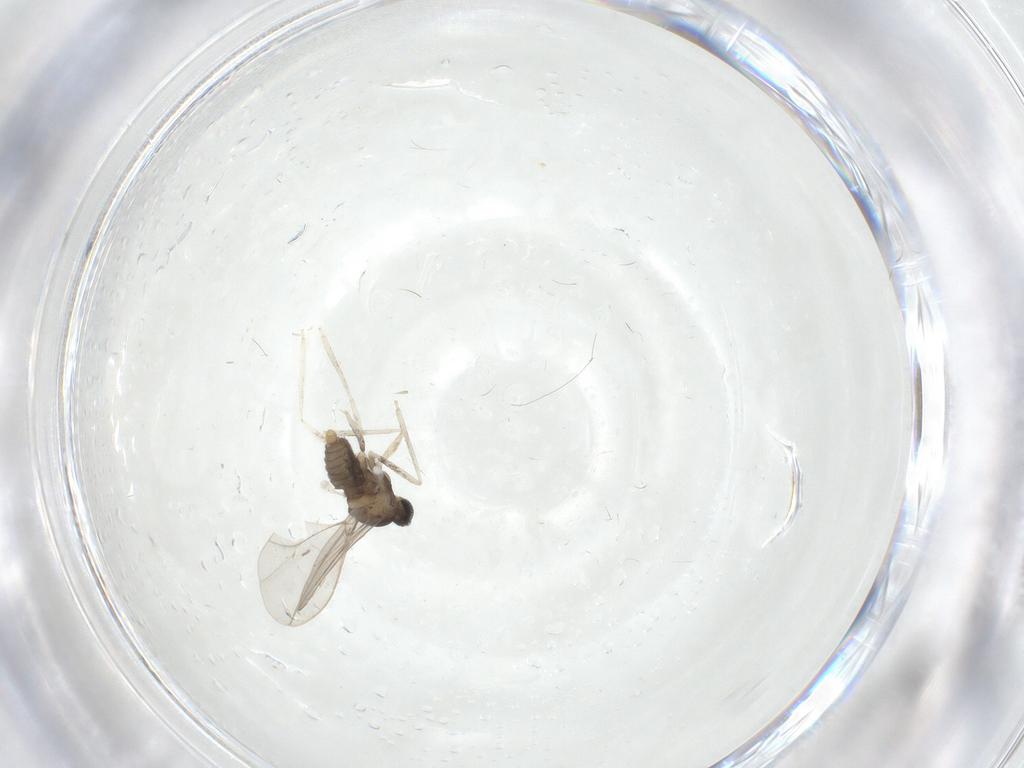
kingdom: Animalia
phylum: Arthropoda
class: Insecta
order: Diptera
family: Cecidomyiidae
